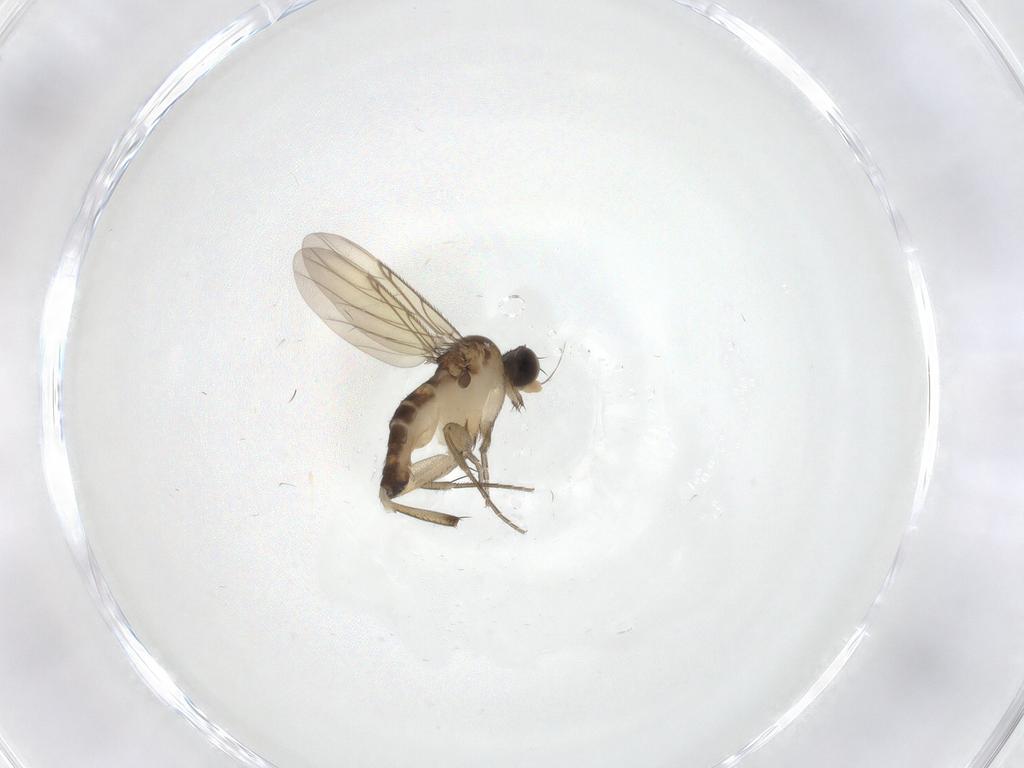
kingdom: Animalia
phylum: Arthropoda
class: Insecta
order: Diptera
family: Phoridae
